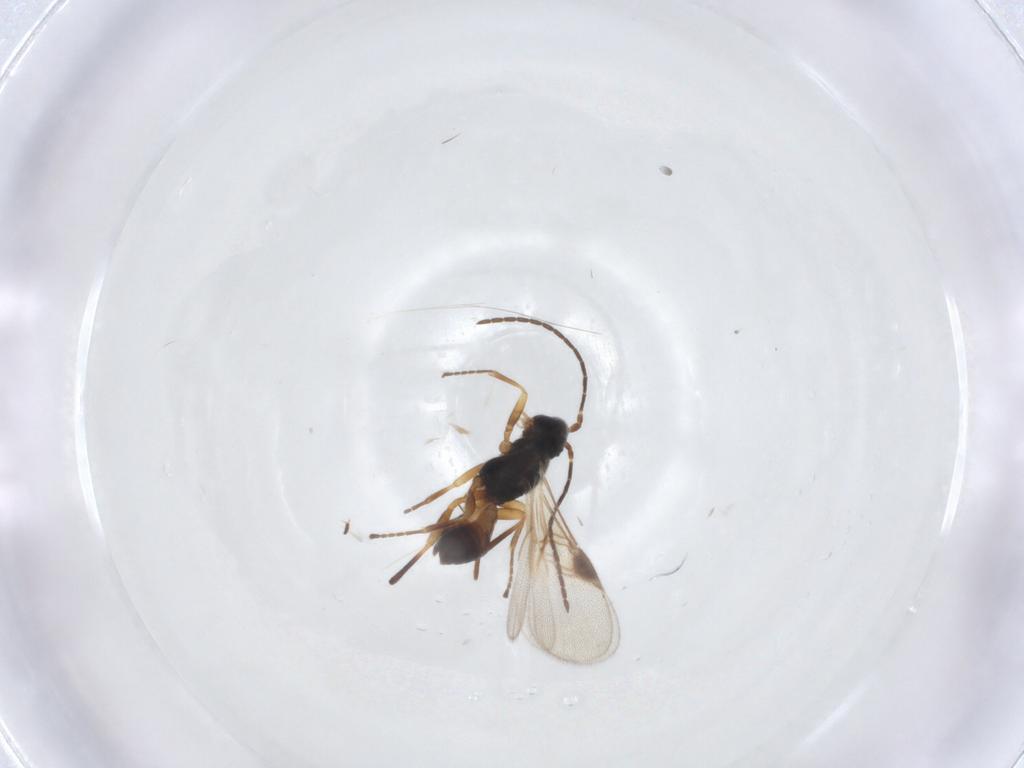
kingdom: Animalia
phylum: Arthropoda
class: Insecta
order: Hymenoptera
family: Braconidae
